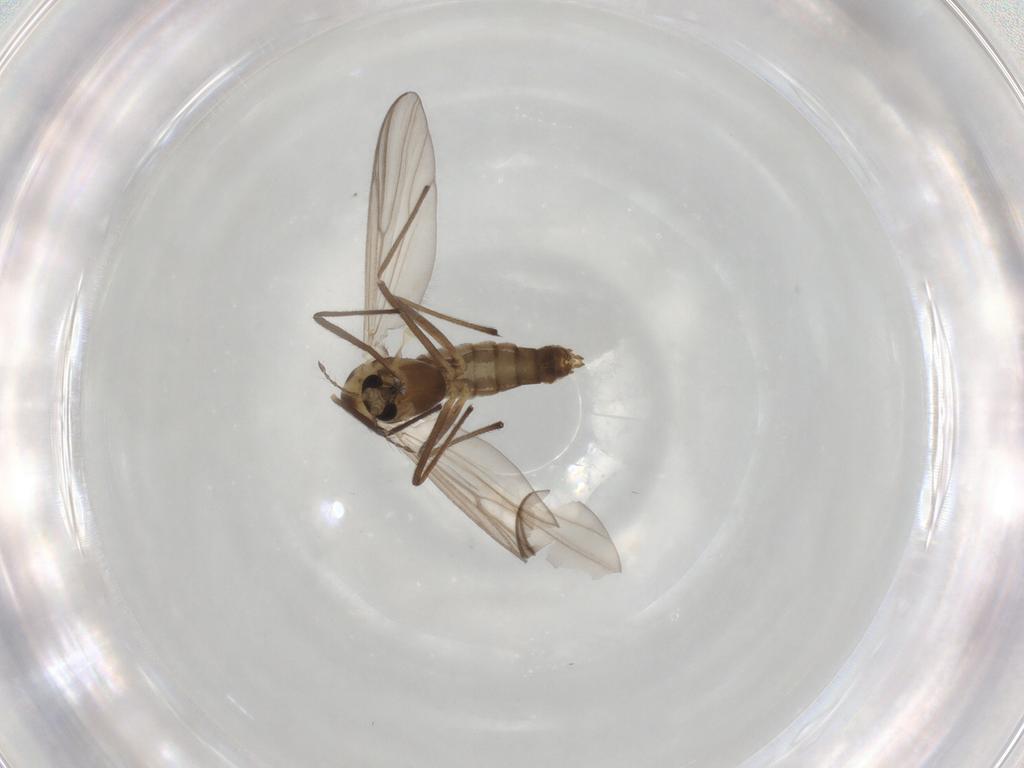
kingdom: Animalia
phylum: Arthropoda
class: Insecta
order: Diptera
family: Chironomidae
